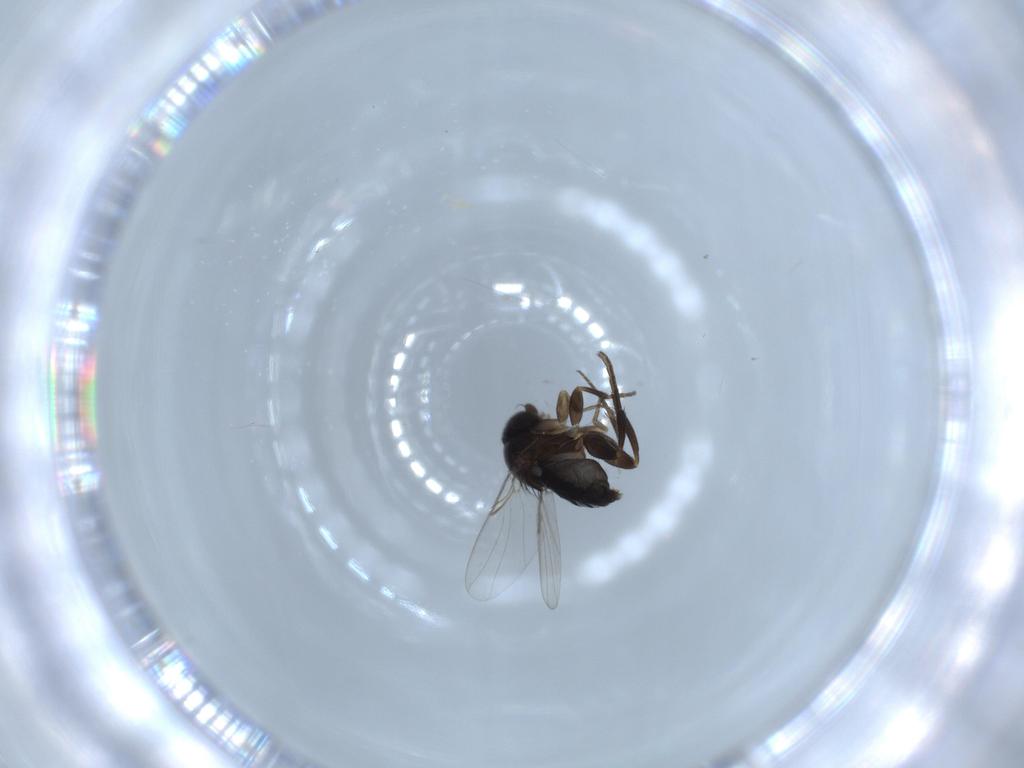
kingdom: Animalia
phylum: Arthropoda
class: Insecta
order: Diptera
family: Phoridae
